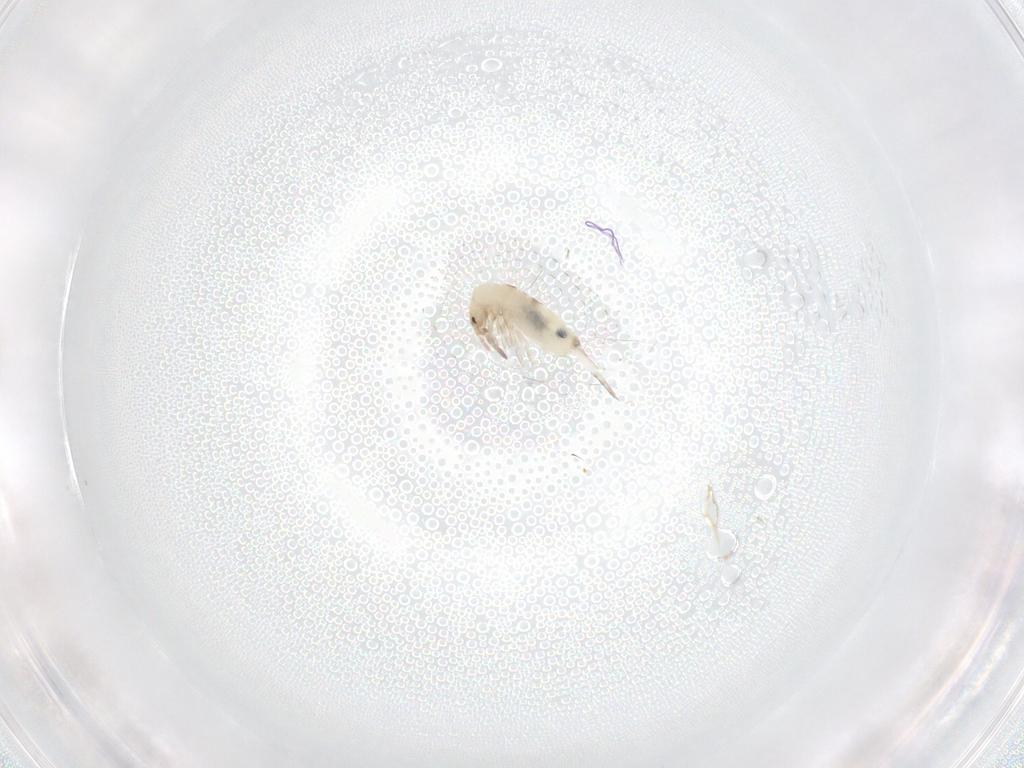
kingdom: Animalia
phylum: Arthropoda
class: Collembola
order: Entomobryomorpha
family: Entomobryidae
